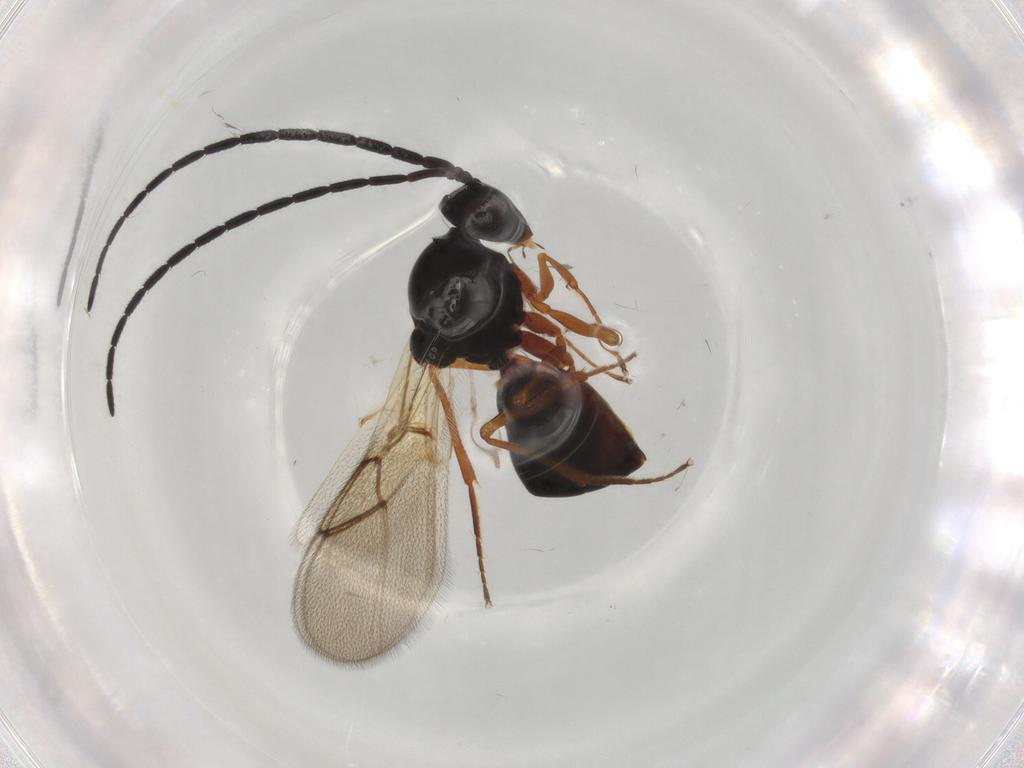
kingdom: Animalia
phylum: Arthropoda
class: Insecta
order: Hymenoptera
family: Figitidae
